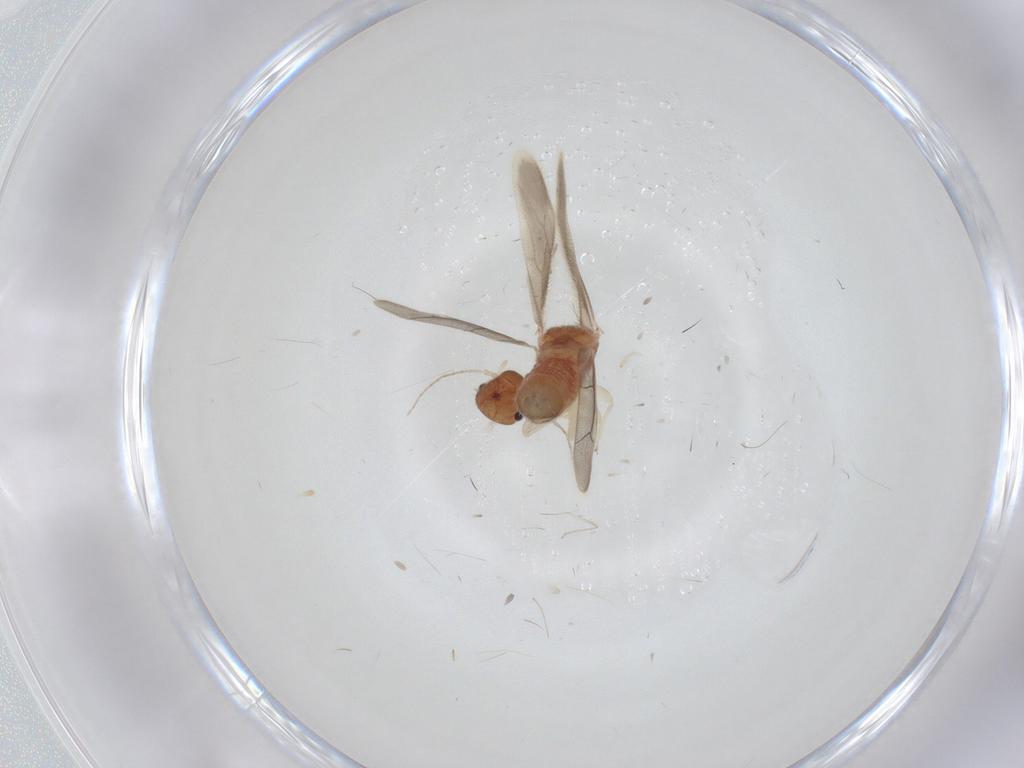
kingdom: Animalia
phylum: Arthropoda
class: Insecta
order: Psocodea
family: Archipsocidae
